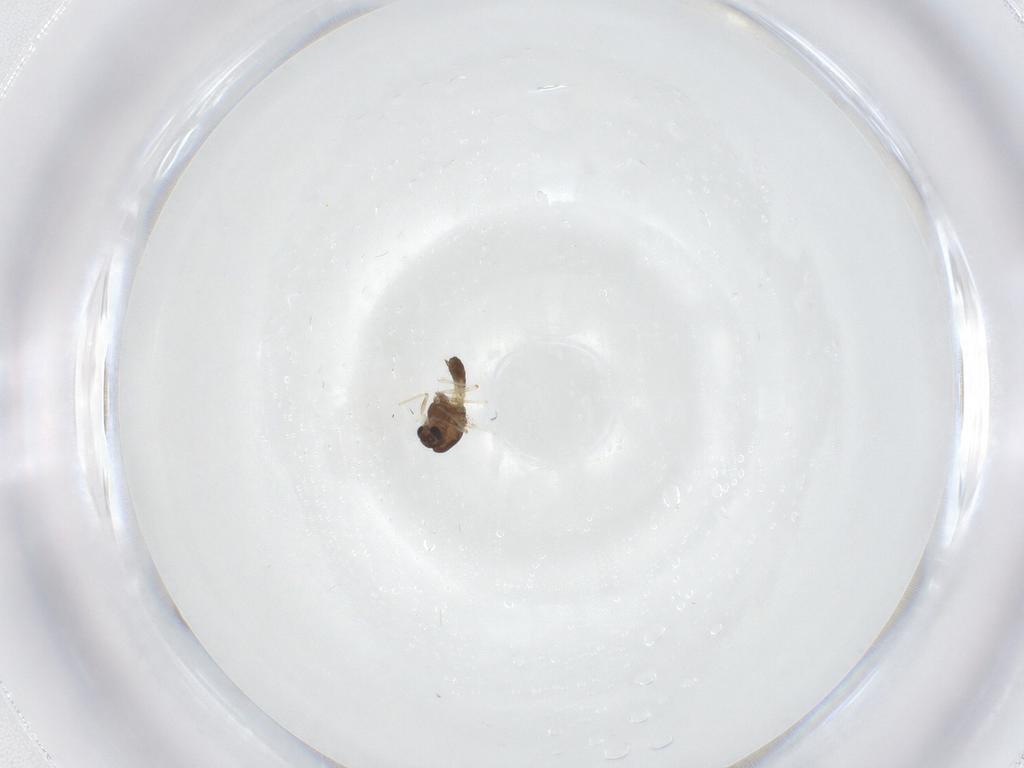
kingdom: Animalia
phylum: Arthropoda
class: Insecta
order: Diptera
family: Chironomidae
